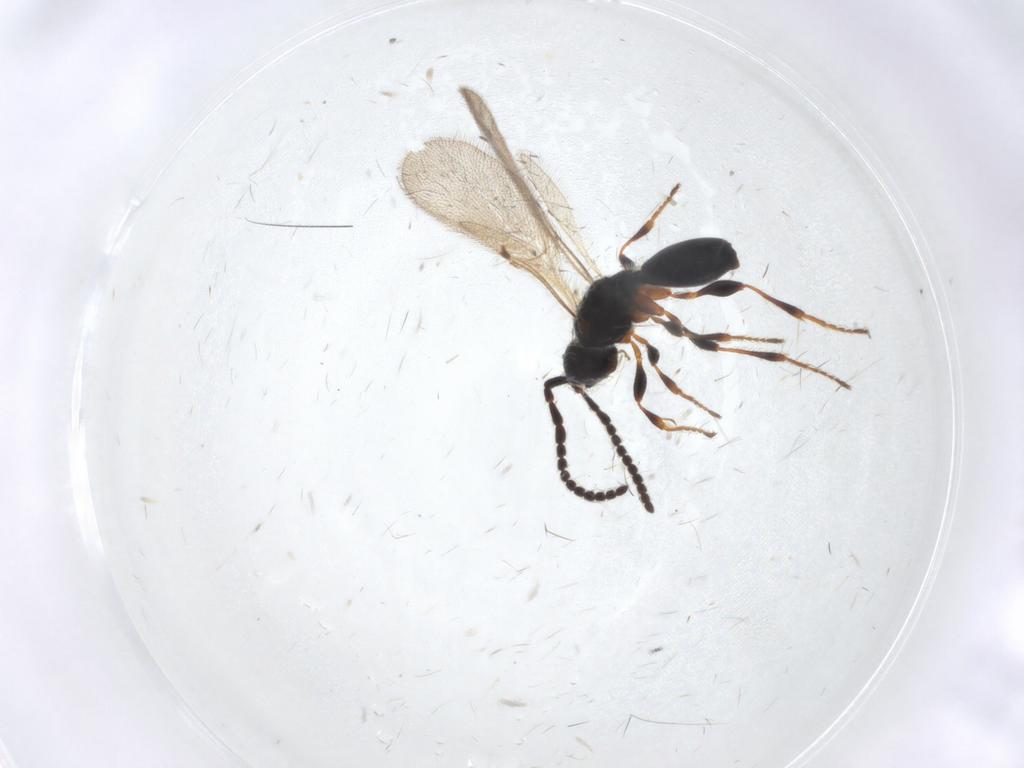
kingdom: Animalia
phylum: Arthropoda
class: Insecta
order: Hymenoptera
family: Diapriidae
